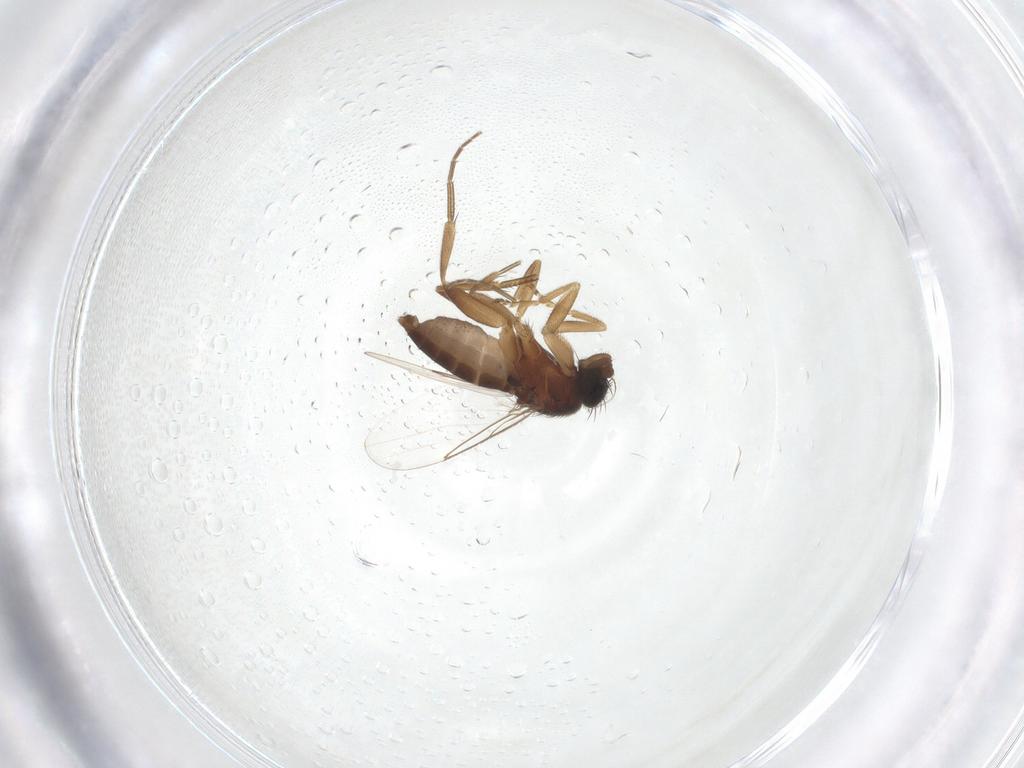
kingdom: Animalia
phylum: Arthropoda
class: Insecta
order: Diptera
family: Phoridae
